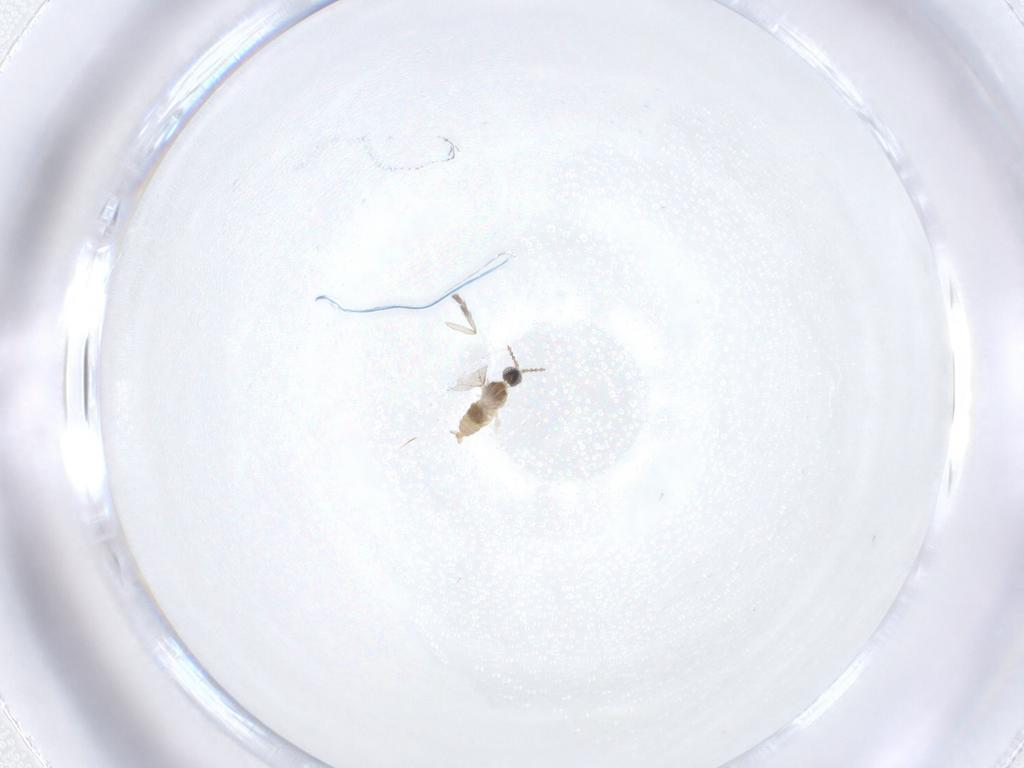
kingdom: Animalia
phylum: Arthropoda
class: Insecta
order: Diptera
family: Cecidomyiidae
